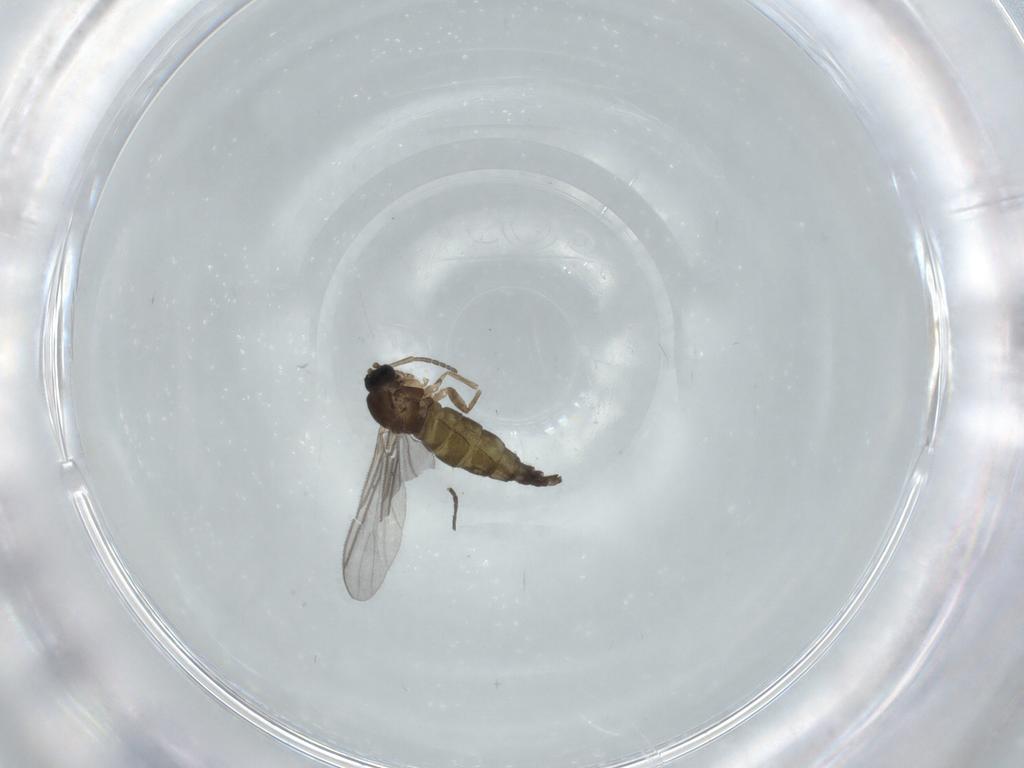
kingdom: Animalia
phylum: Arthropoda
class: Insecta
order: Diptera
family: Sciaridae
